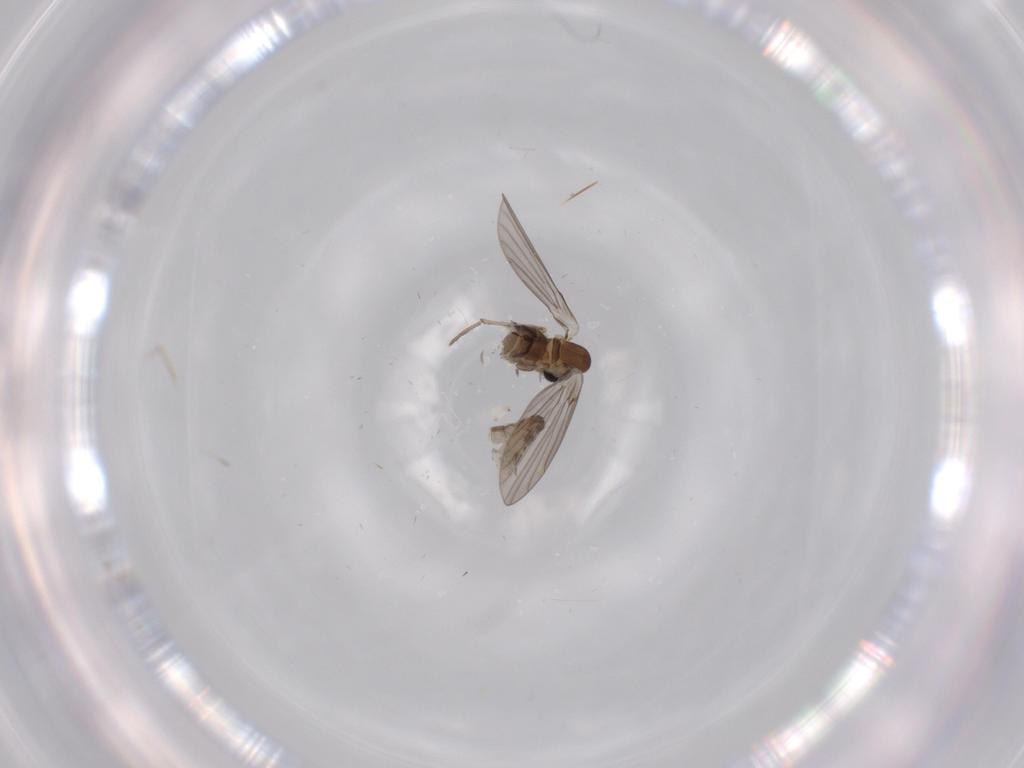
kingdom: Animalia
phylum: Arthropoda
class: Insecta
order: Diptera
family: Psychodidae
